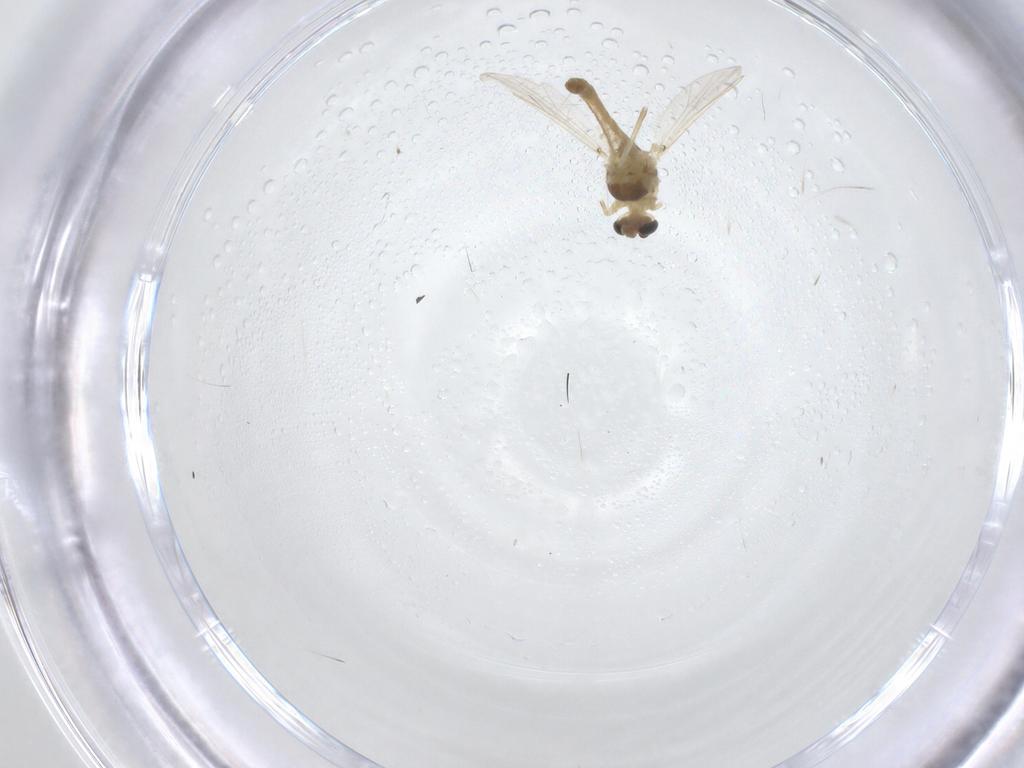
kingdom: Animalia
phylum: Arthropoda
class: Insecta
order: Diptera
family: Chironomidae
